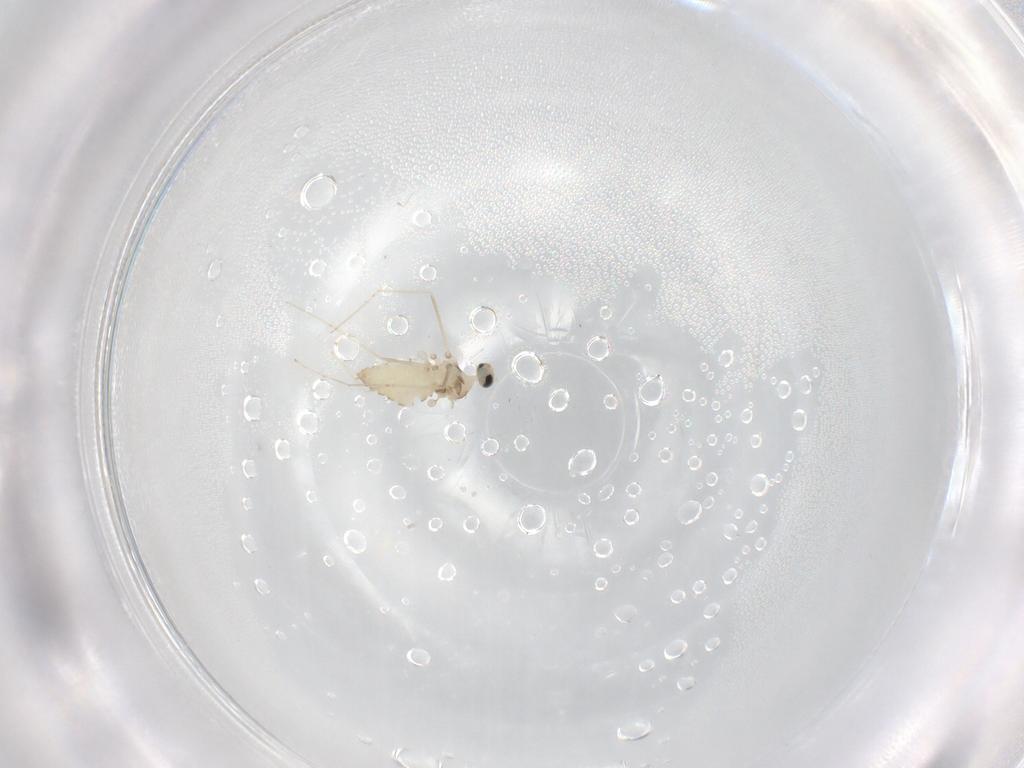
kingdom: Animalia
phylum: Arthropoda
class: Insecta
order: Diptera
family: Cecidomyiidae
